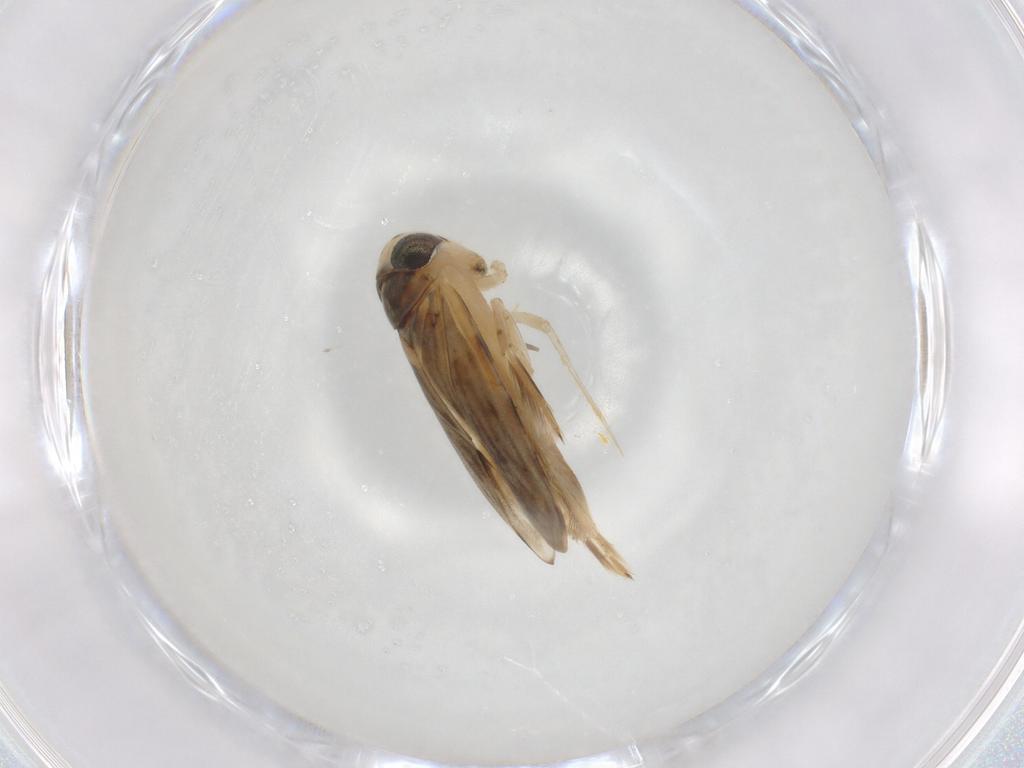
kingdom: Animalia
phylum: Arthropoda
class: Insecta
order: Hemiptera
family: Corixidae
